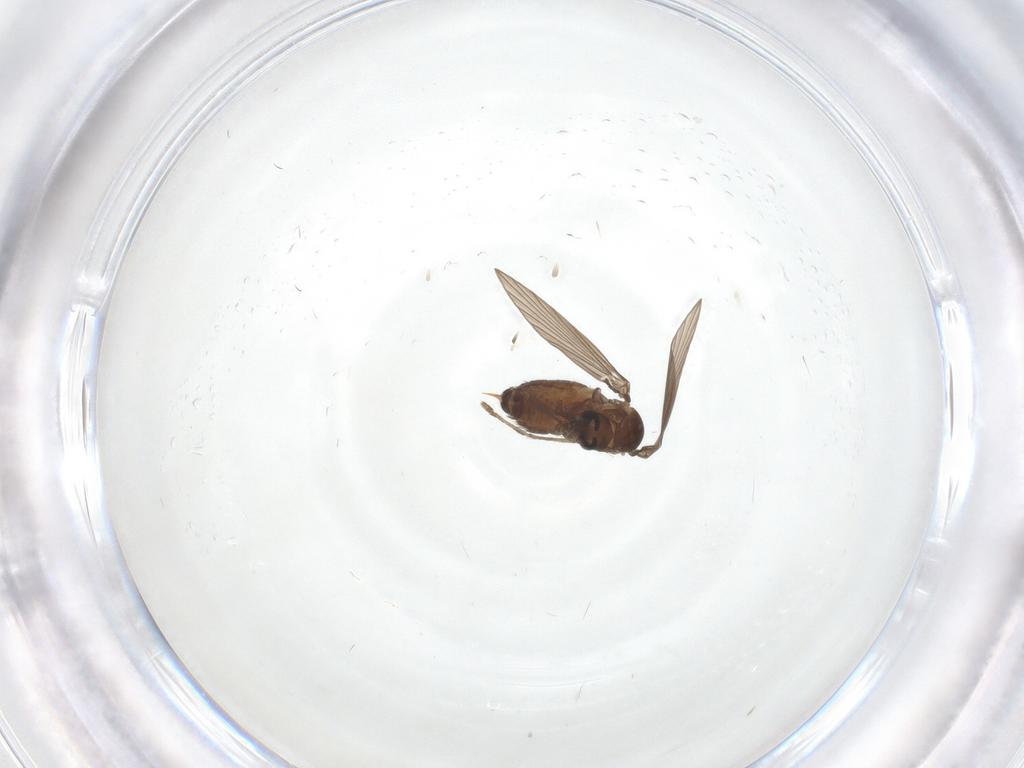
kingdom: Animalia
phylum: Arthropoda
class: Insecta
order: Diptera
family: Psychodidae
